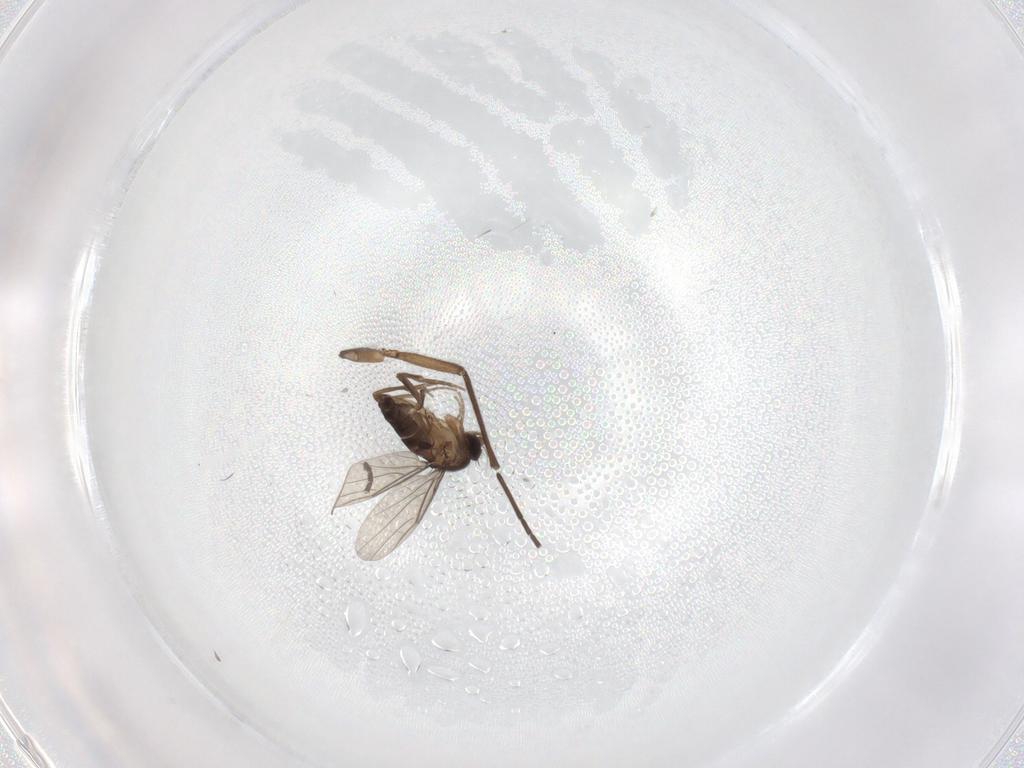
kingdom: Animalia
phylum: Arthropoda
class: Insecta
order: Diptera
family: Phoridae
